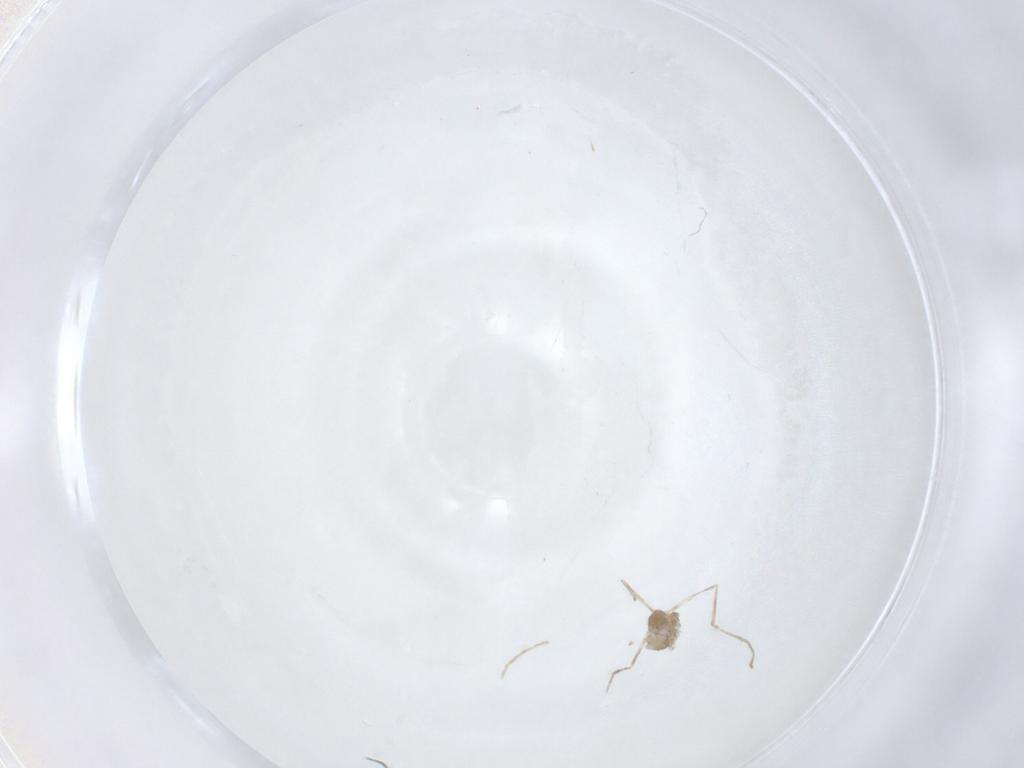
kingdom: Animalia
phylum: Arthropoda
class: Insecta
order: Diptera
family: Cecidomyiidae
